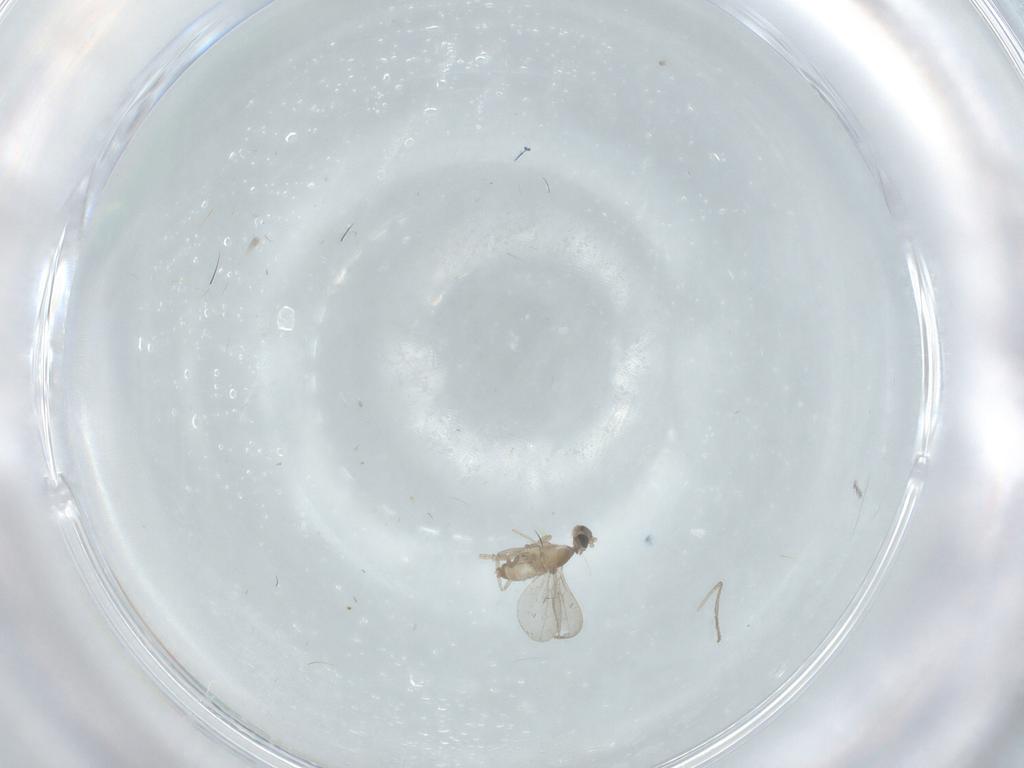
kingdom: Animalia
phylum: Arthropoda
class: Insecta
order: Diptera
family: Cecidomyiidae
